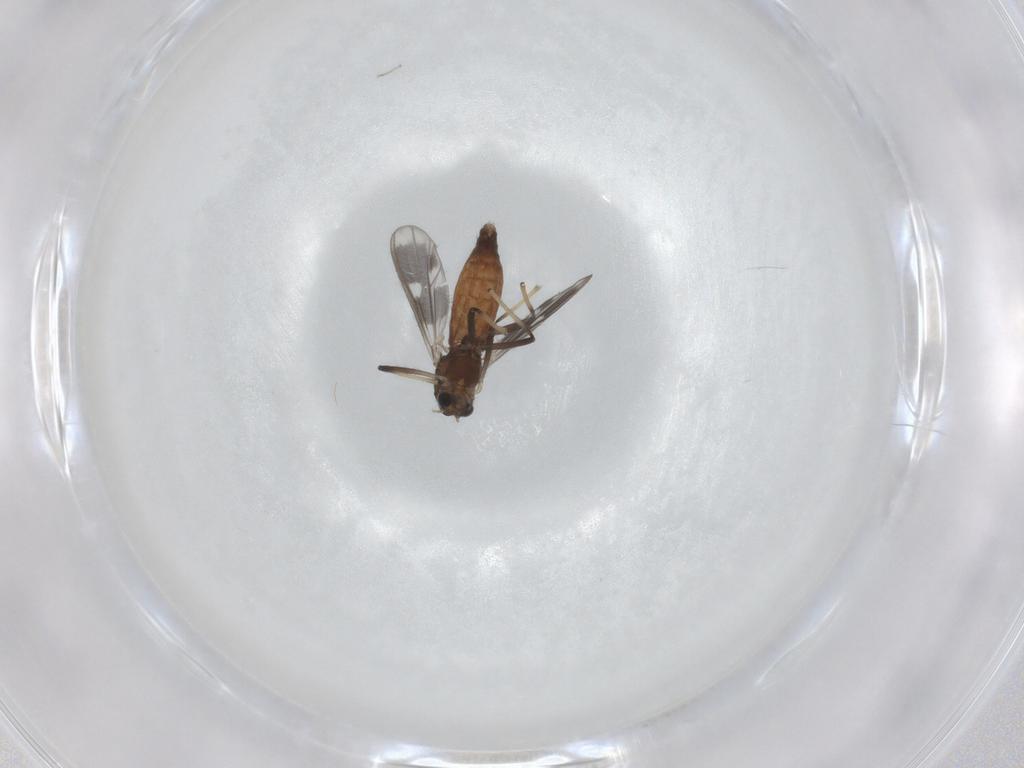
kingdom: Animalia
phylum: Arthropoda
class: Insecta
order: Diptera
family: Chironomidae
